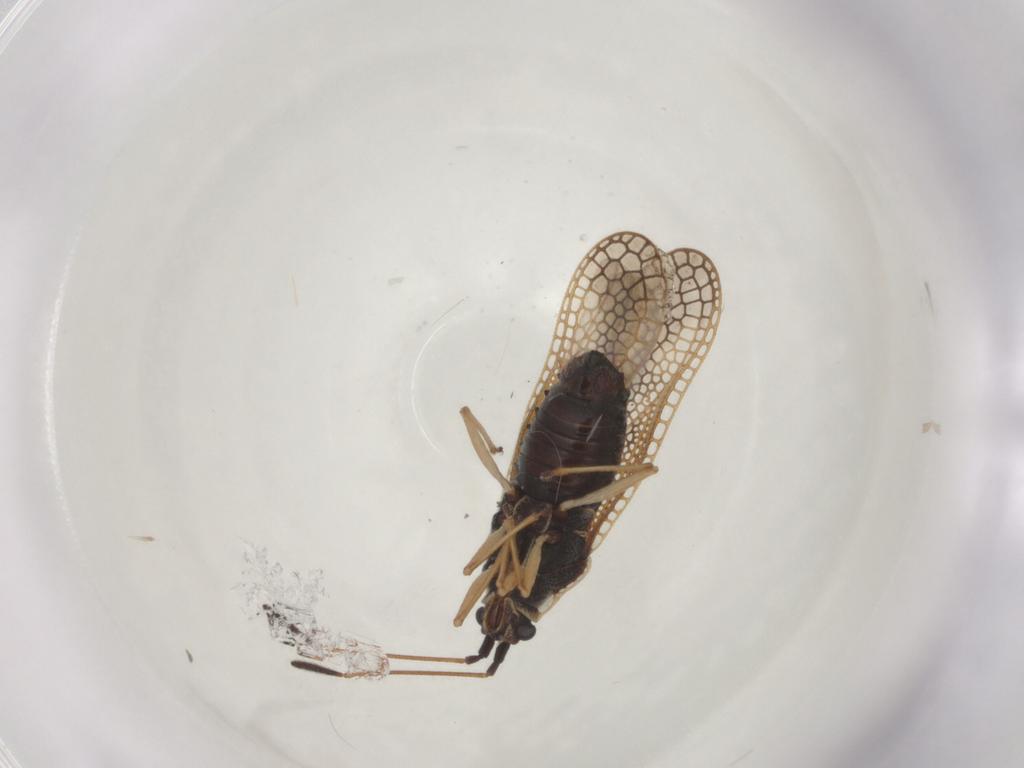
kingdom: Animalia
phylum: Arthropoda
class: Insecta
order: Hemiptera
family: Tingidae
